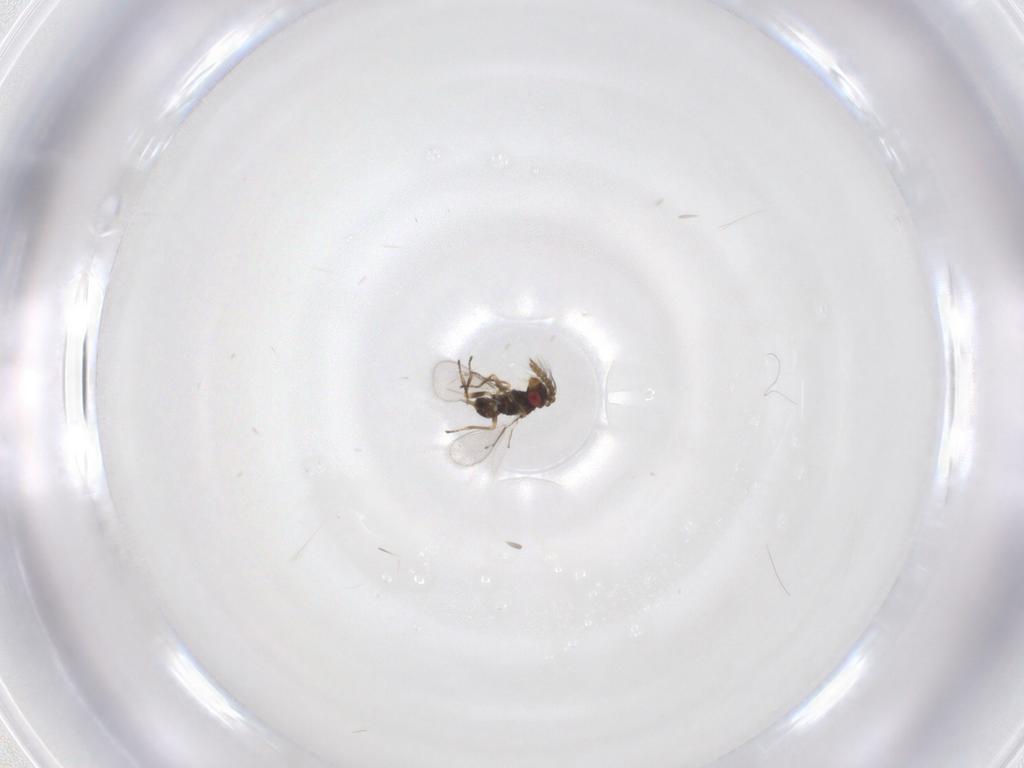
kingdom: Animalia
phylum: Arthropoda
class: Insecta
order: Hymenoptera
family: Eulophidae
